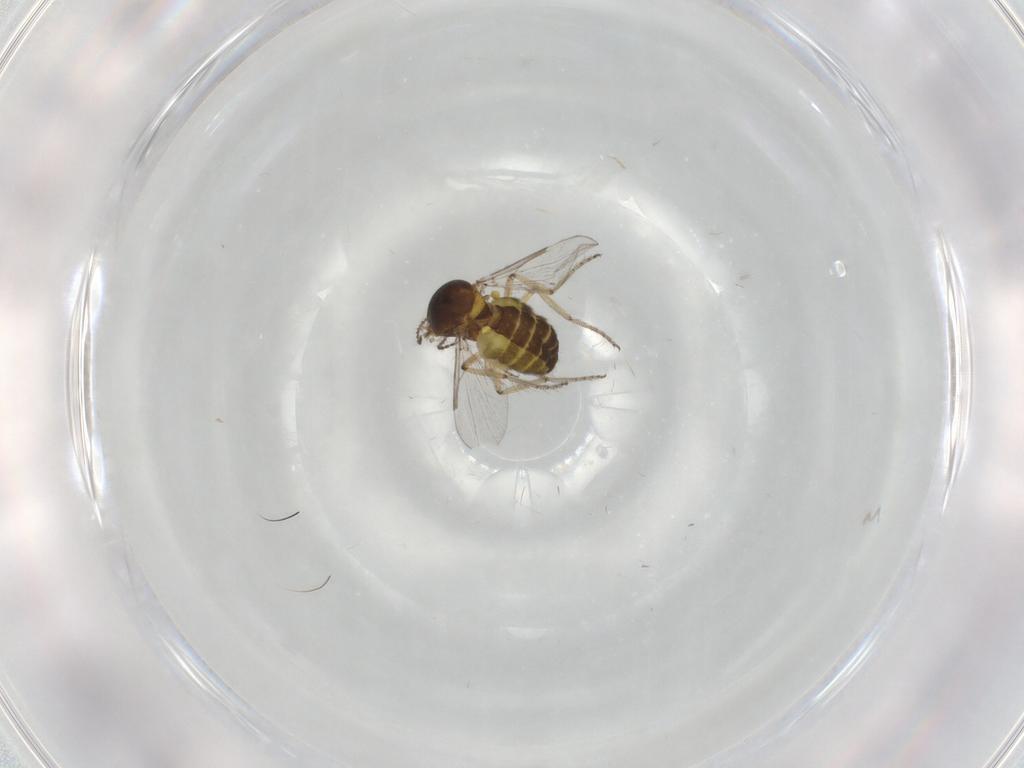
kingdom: Animalia
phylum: Arthropoda
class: Insecta
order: Diptera
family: Ceratopogonidae
